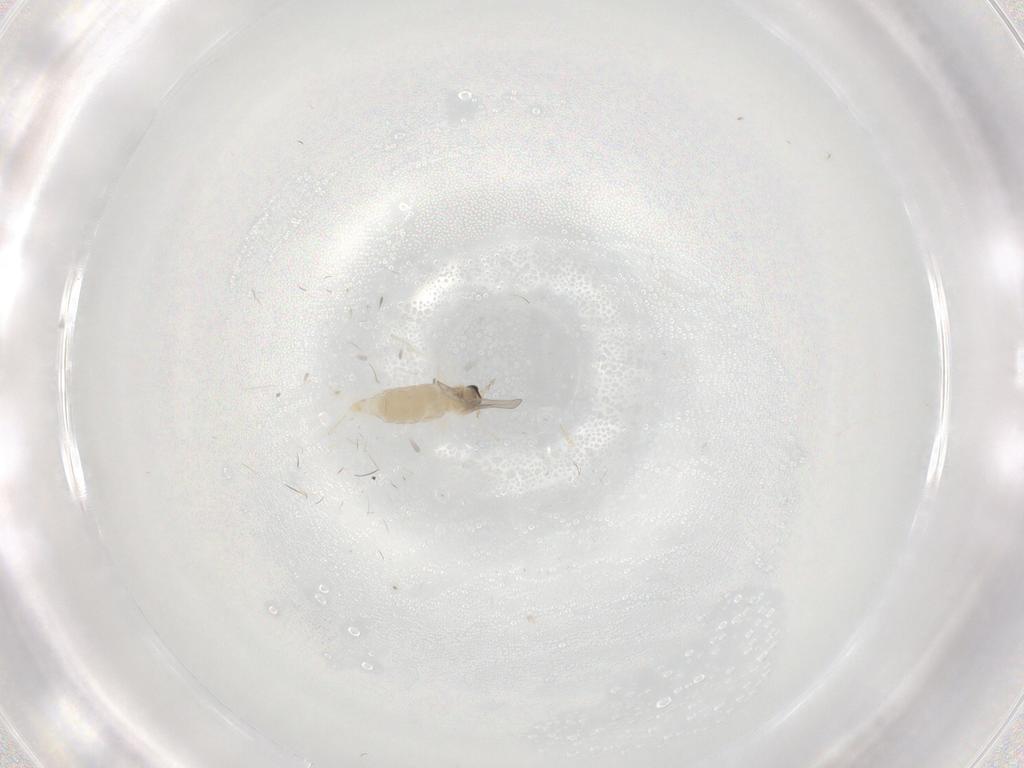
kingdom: Animalia
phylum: Arthropoda
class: Insecta
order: Diptera
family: Cecidomyiidae
